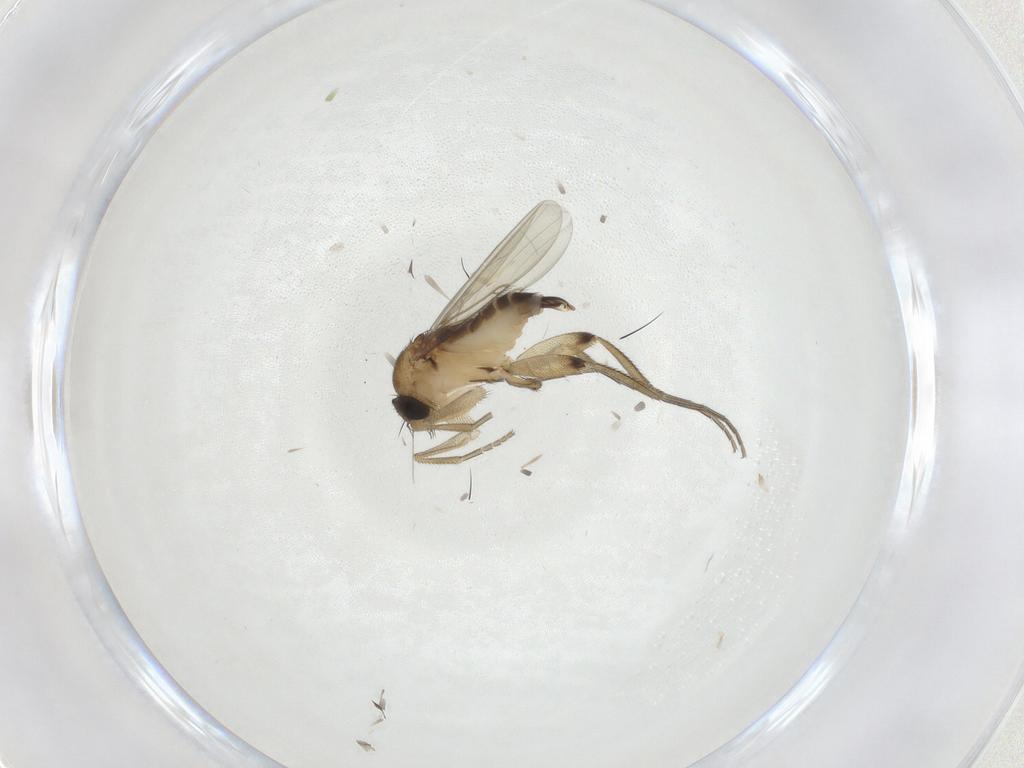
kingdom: Animalia
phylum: Arthropoda
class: Insecta
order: Diptera
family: Phoridae
